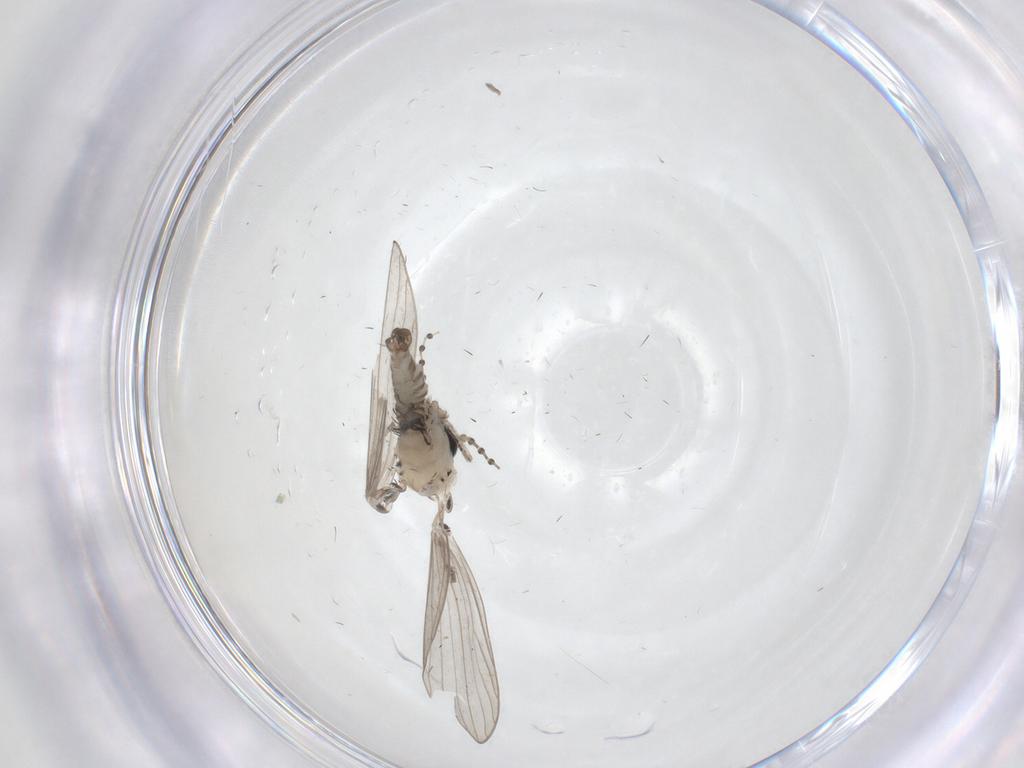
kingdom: Animalia
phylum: Arthropoda
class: Insecta
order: Diptera
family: Psychodidae
